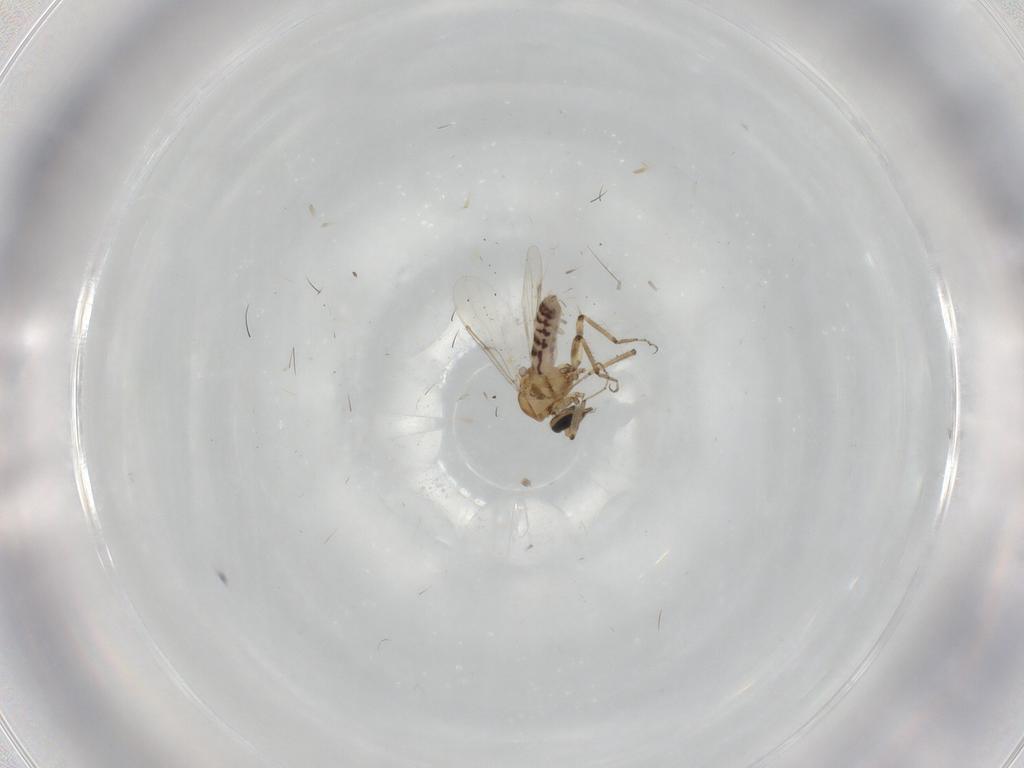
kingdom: Animalia
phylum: Arthropoda
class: Insecta
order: Diptera
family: Ceratopogonidae
